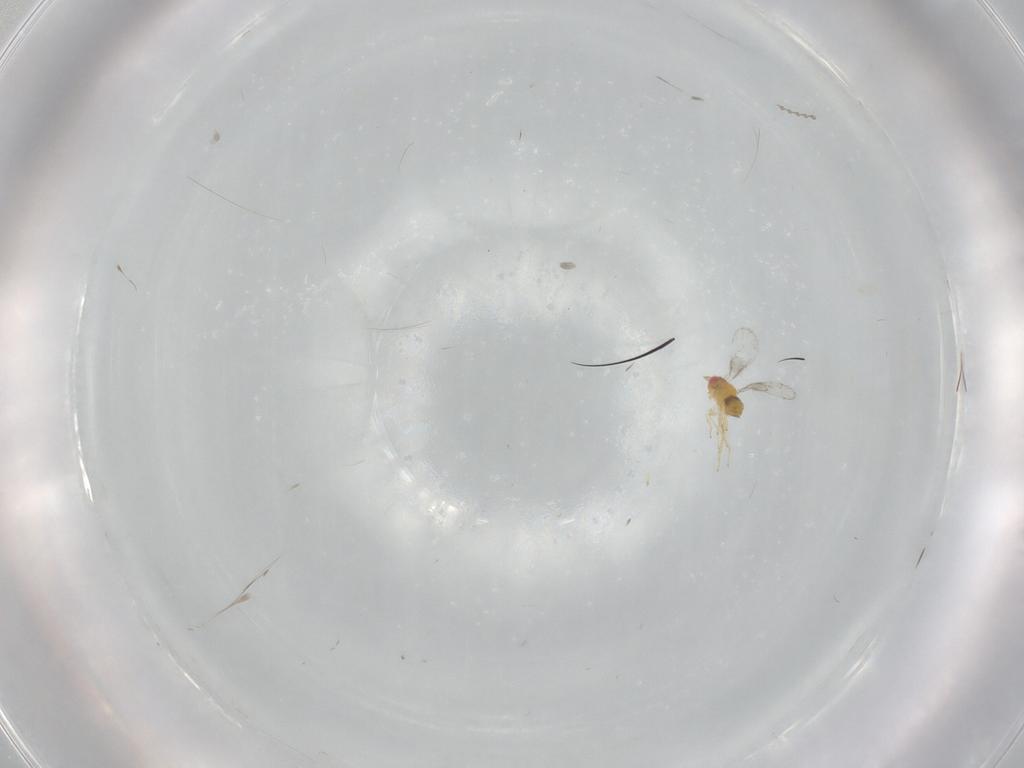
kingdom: Animalia
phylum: Arthropoda
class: Insecta
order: Hymenoptera
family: Trichogrammatidae
